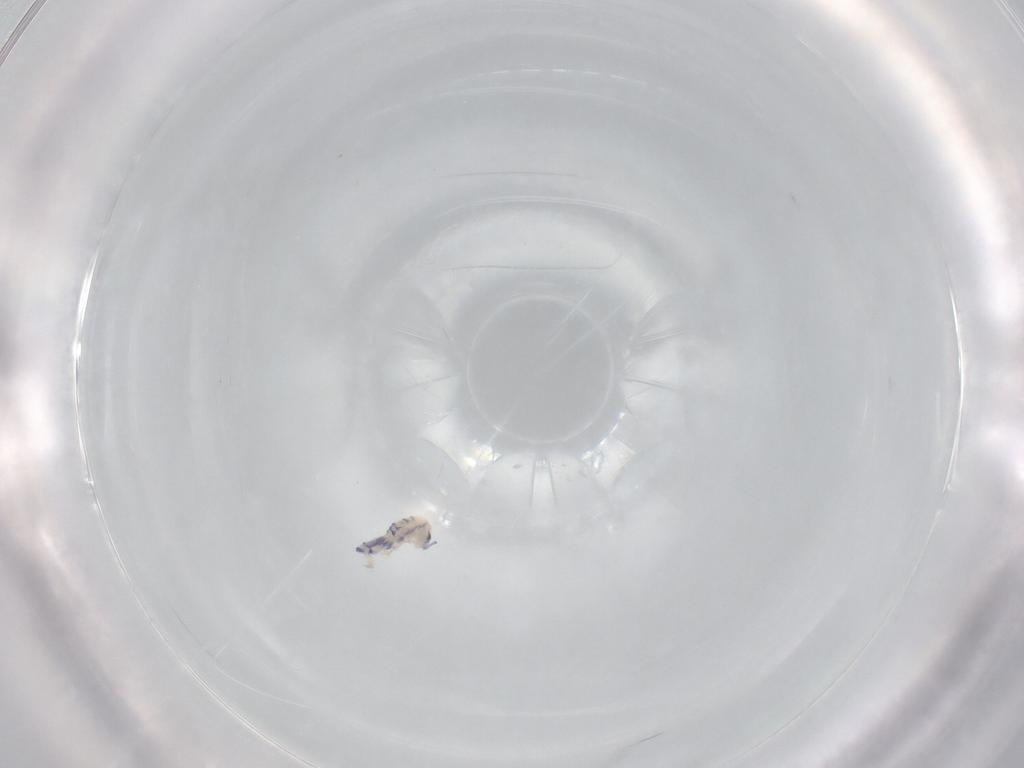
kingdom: Animalia
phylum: Arthropoda
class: Collembola
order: Entomobryomorpha
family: Entomobryidae
